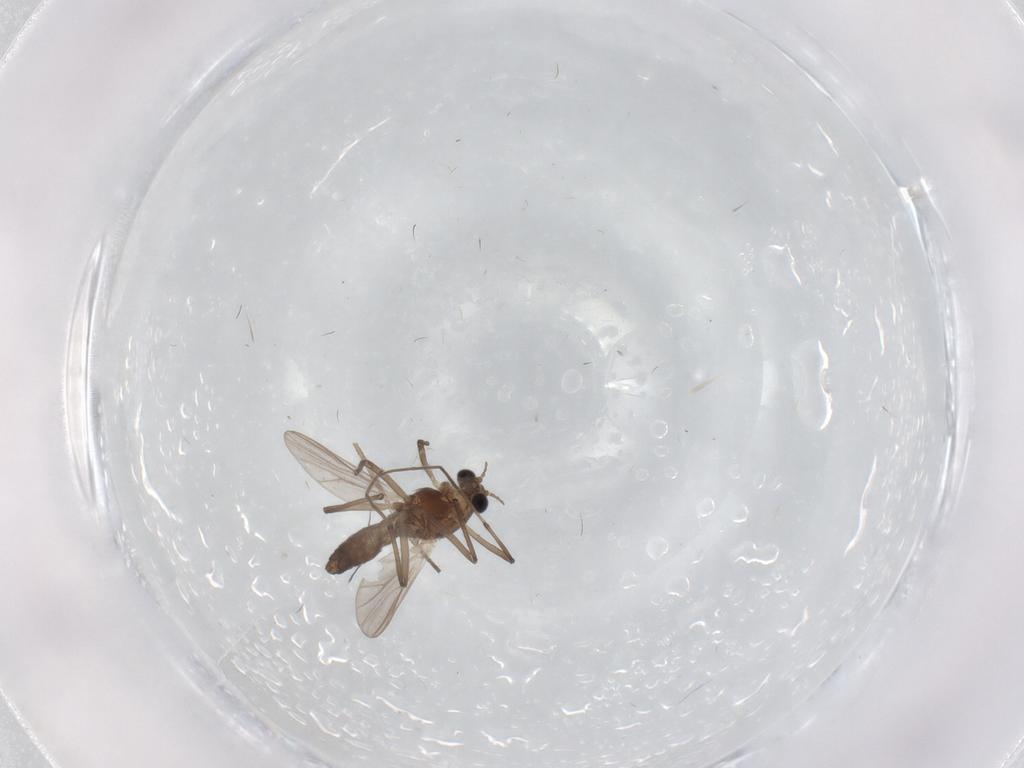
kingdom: Animalia
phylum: Arthropoda
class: Insecta
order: Diptera
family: Chironomidae
